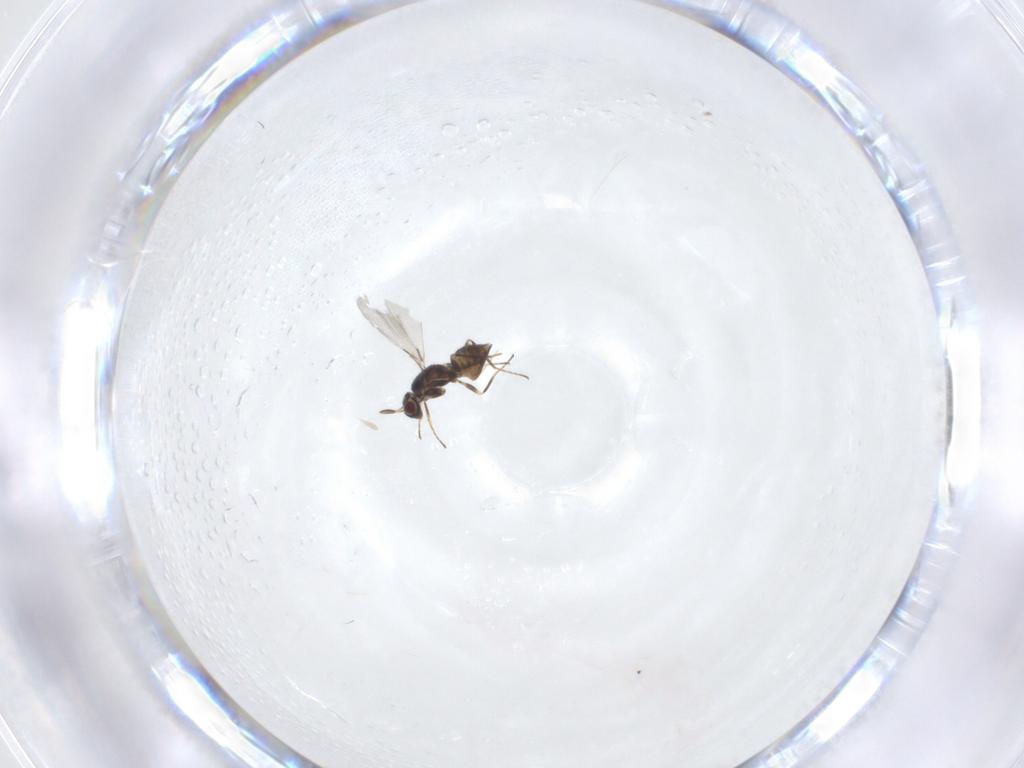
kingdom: Animalia
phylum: Arthropoda
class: Insecta
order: Hymenoptera
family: Mymaridae
